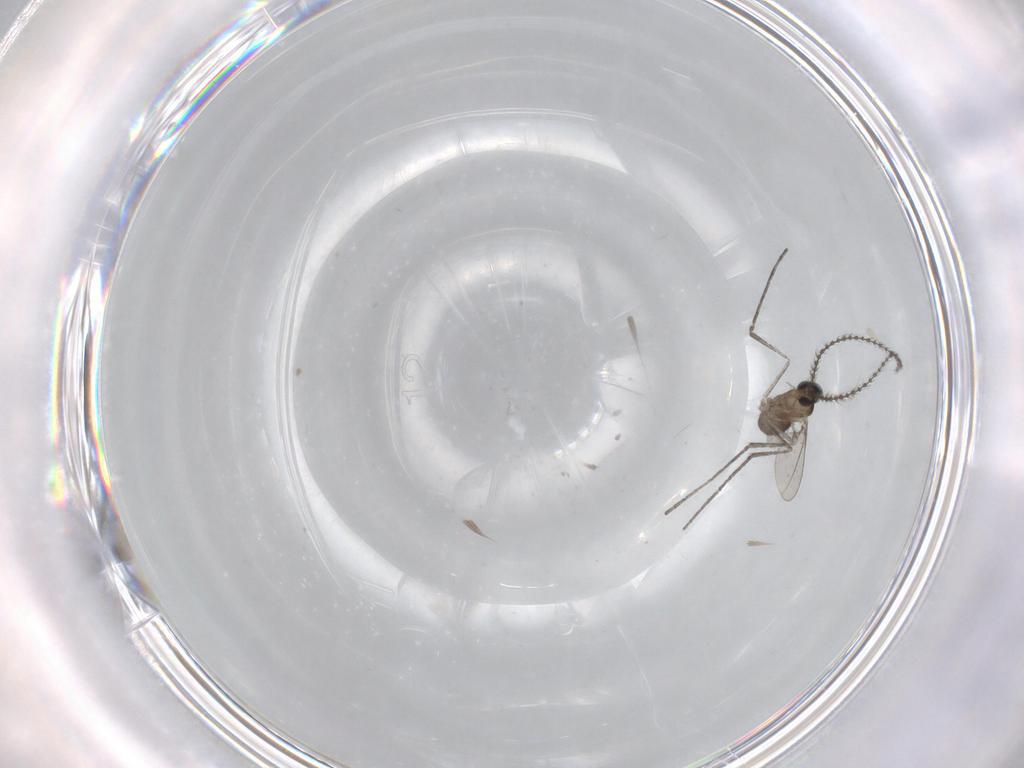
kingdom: Animalia
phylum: Arthropoda
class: Insecta
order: Diptera
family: Cecidomyiidae
